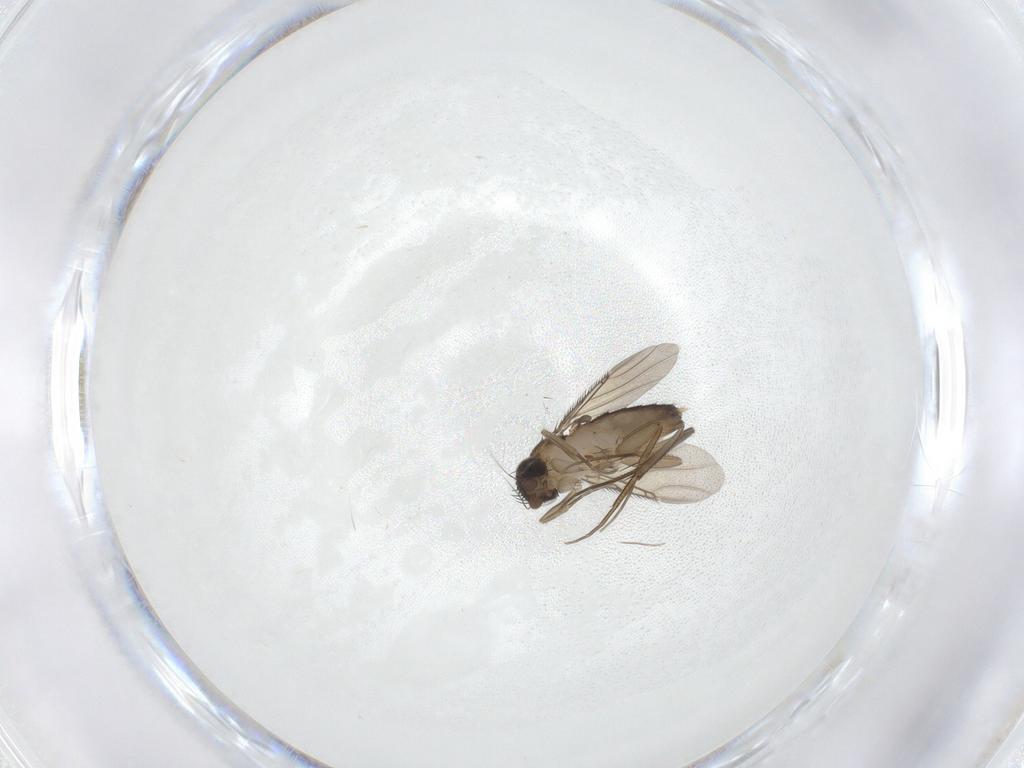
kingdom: Animalia
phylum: Arthropoda
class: Insecta
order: Diptera
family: Phoridae
